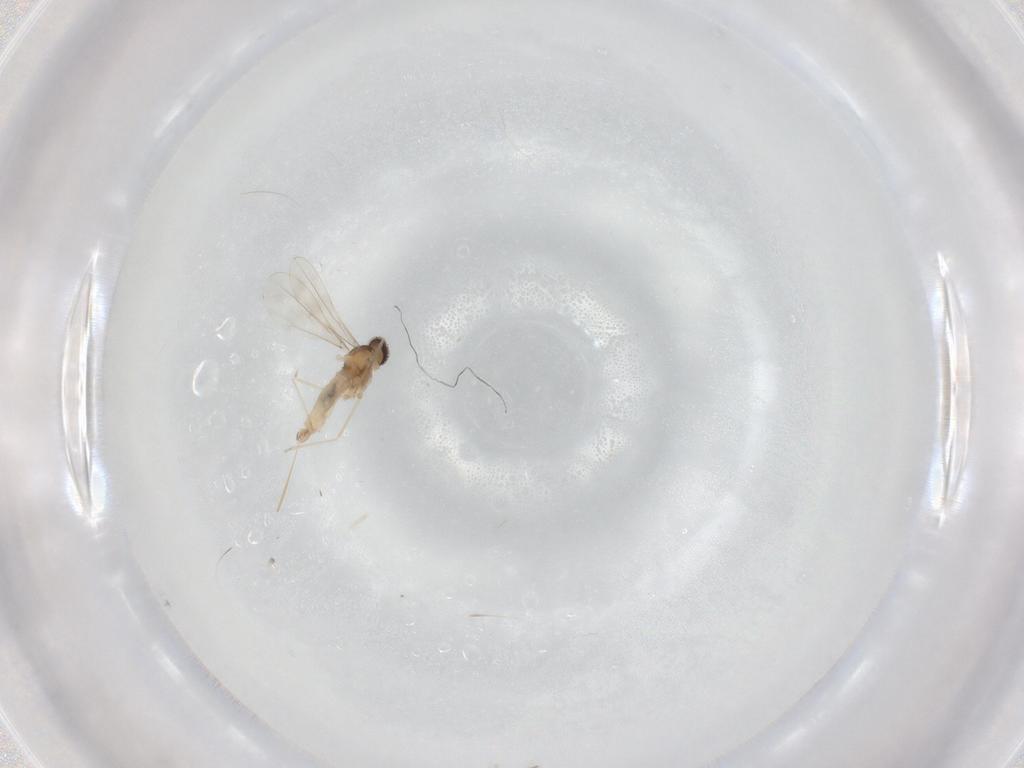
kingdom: Animalia
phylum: Arthropoda
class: Insecta
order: Diptera
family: Cecidomyiidae
